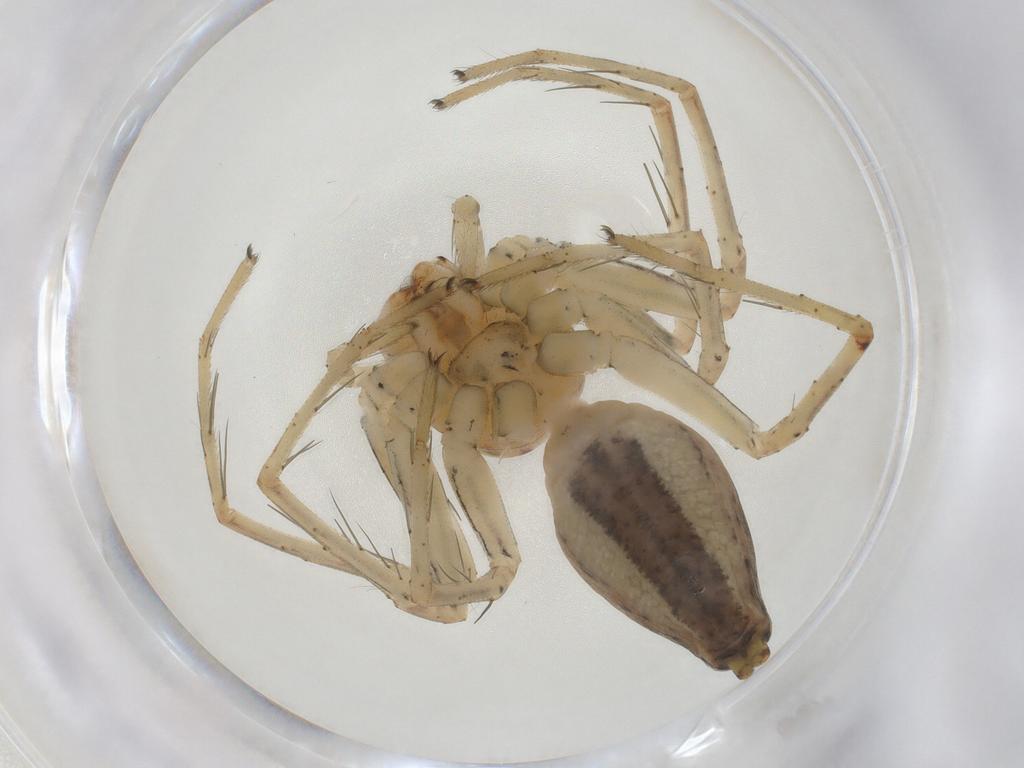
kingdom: Animalia
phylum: Arthropoda
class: Arachnida
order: Araneae
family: Oxyopidae
